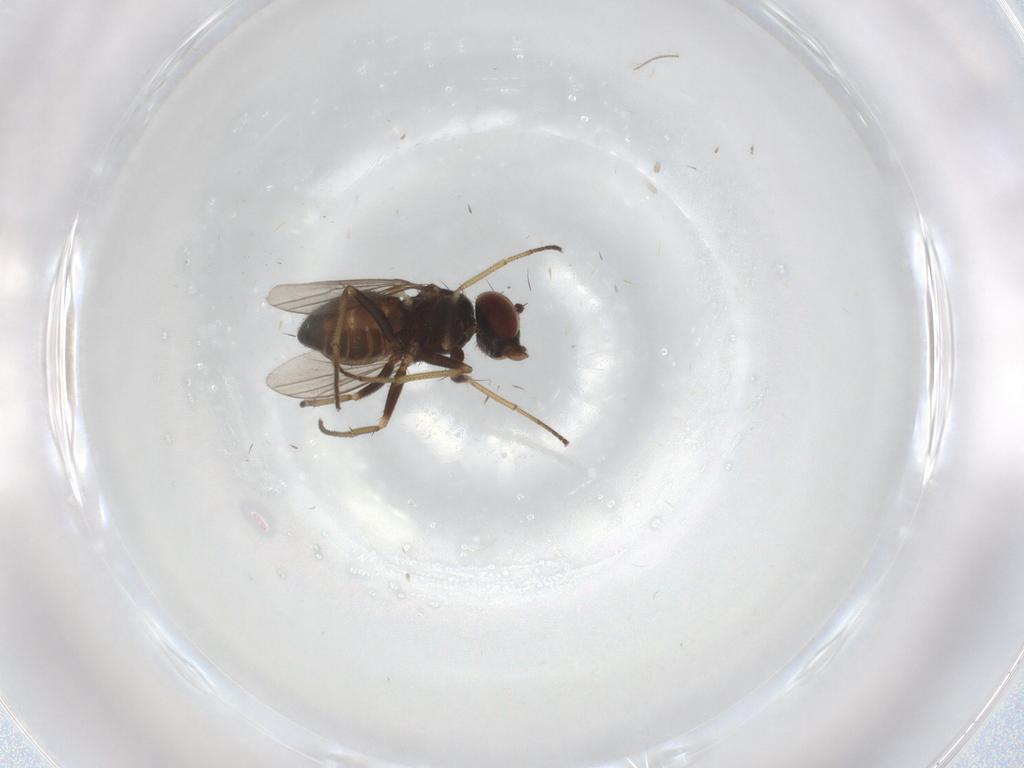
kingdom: Animalia
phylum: Arthropoda
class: Insecta
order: Diptera
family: Dolichopodidae
